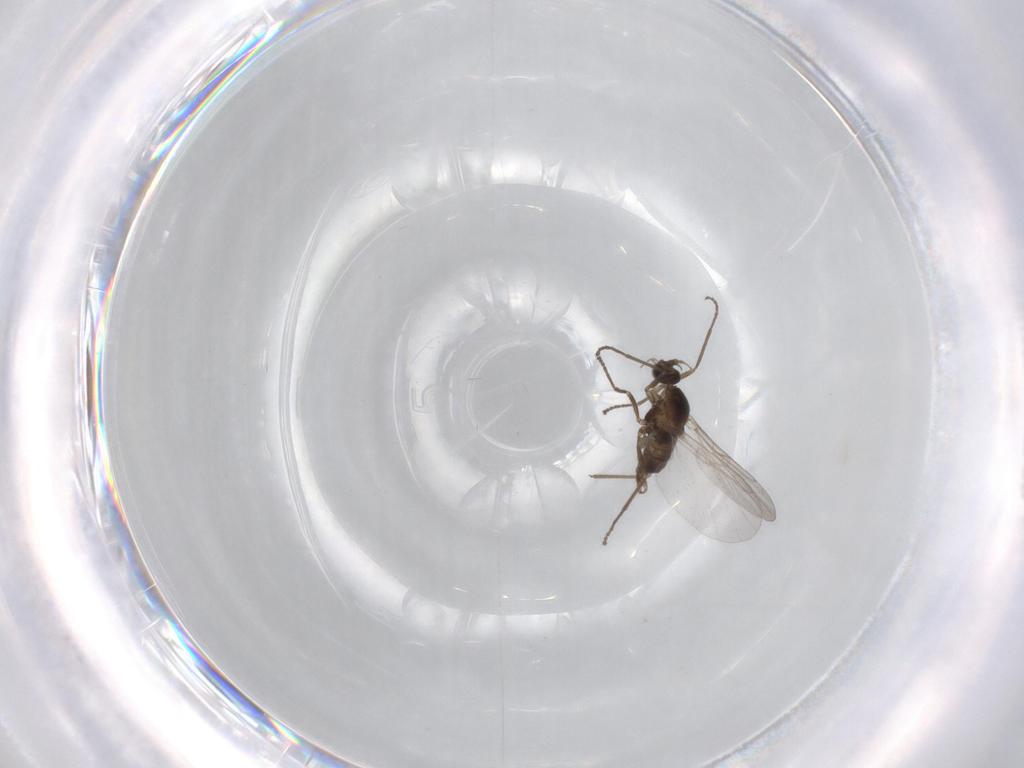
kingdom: Animalia
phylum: Arthropoda
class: Insecta
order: Diptera
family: Cecidomyiidae
